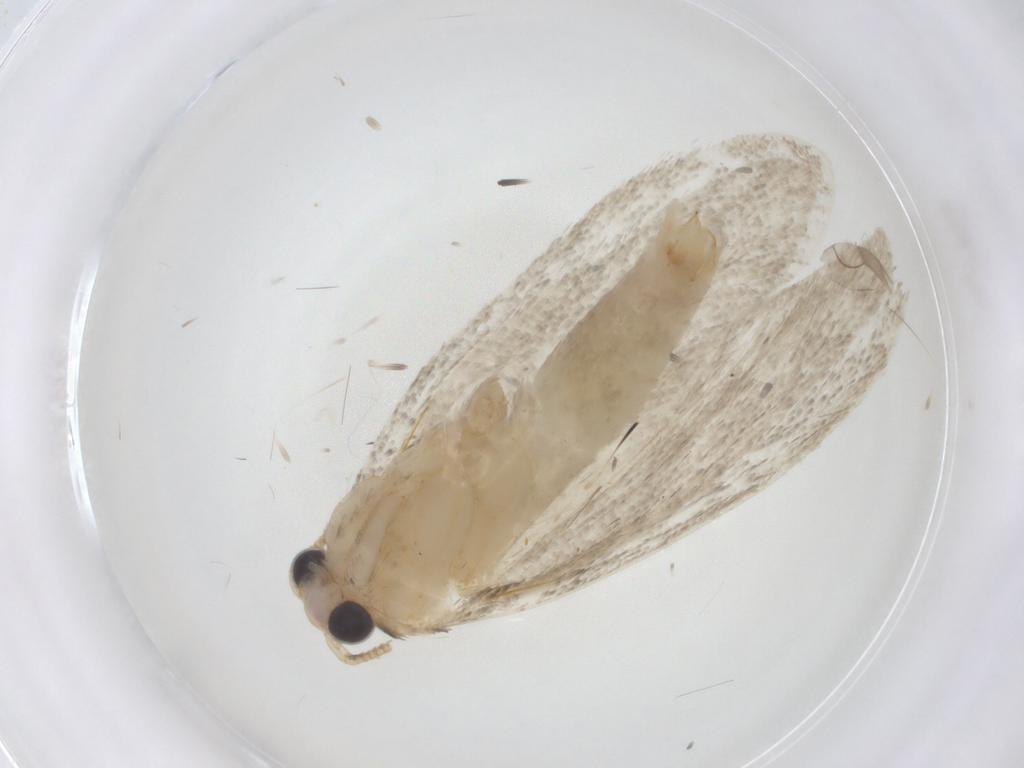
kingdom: Animalia
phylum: Arthropoda
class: Insecta
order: Lepidoptera
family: Tineidae
